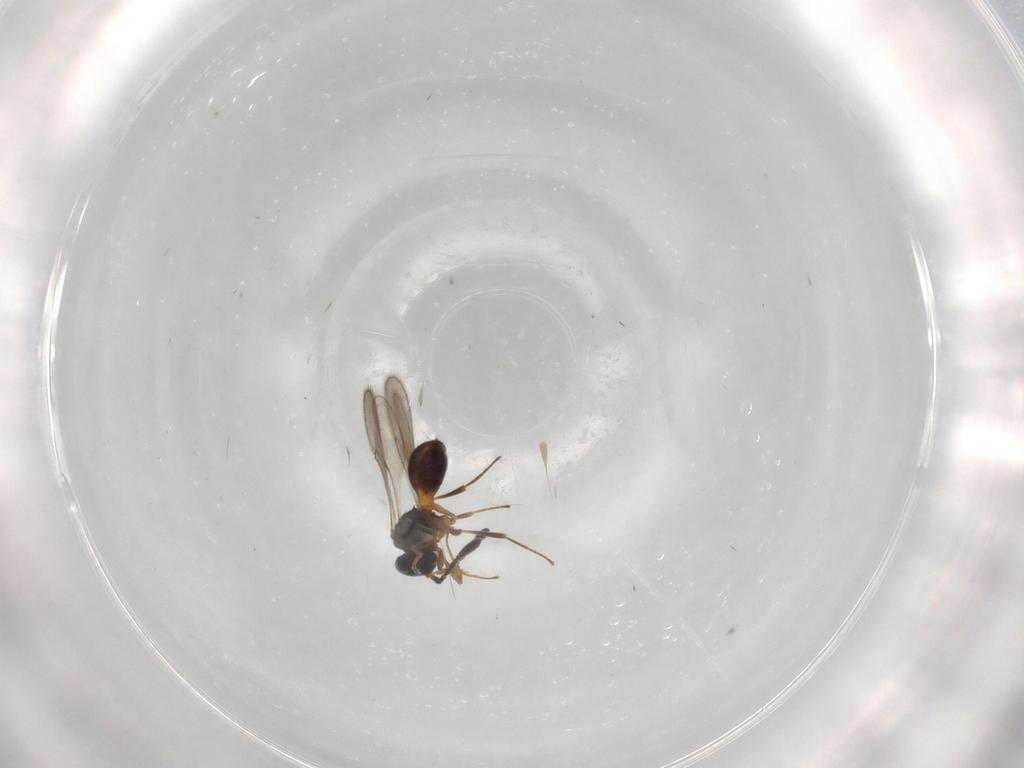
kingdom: Animalia
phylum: Arthropoda
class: Insecta
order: Hymenoptera
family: Scelionidae
